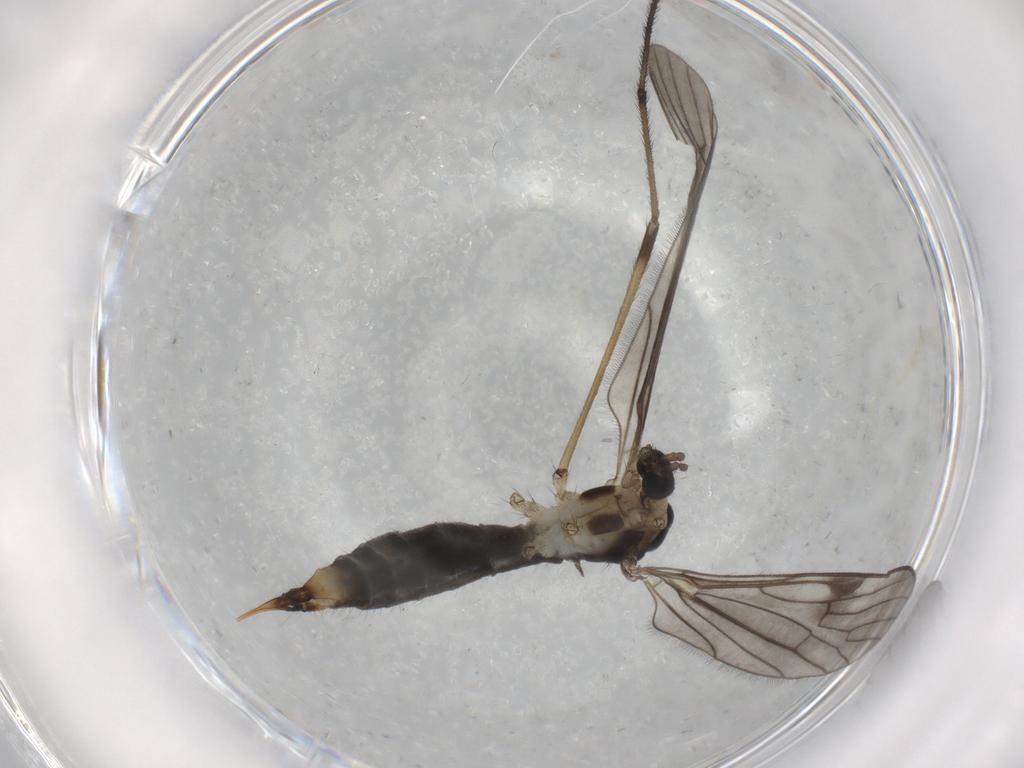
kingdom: Animalia
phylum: Arthropoda
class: Insecta
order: Diptera
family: Limoniidae
